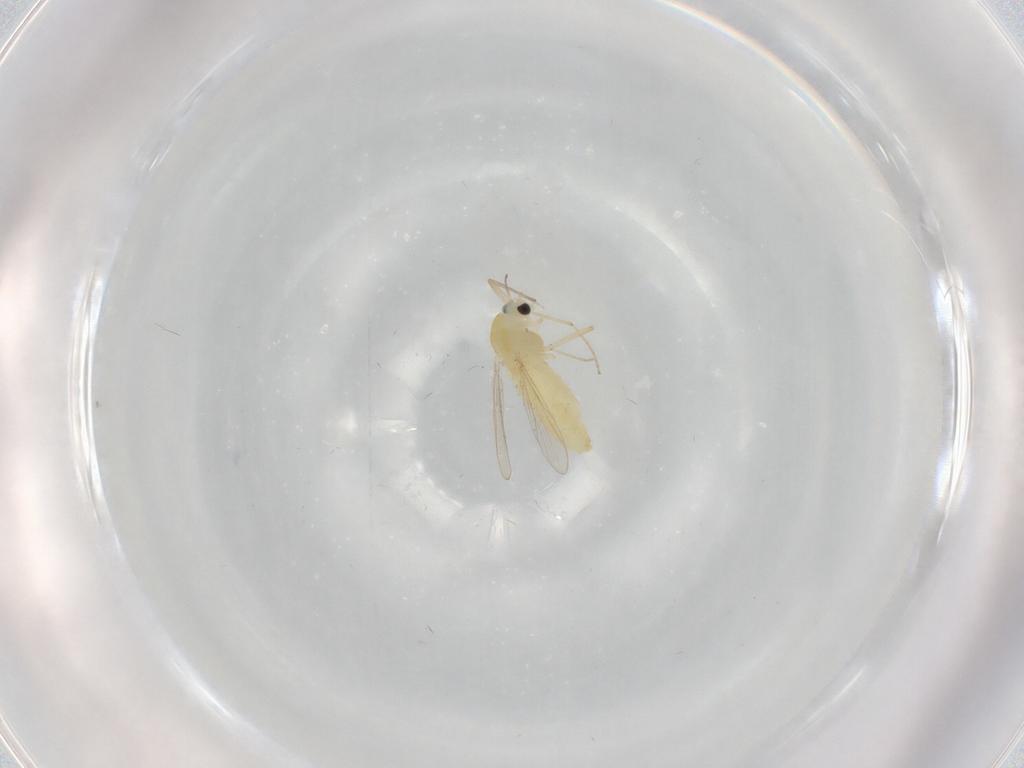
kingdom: Animalia
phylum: Arthropoda
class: Insecta
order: Diptera
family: Chironomidae
